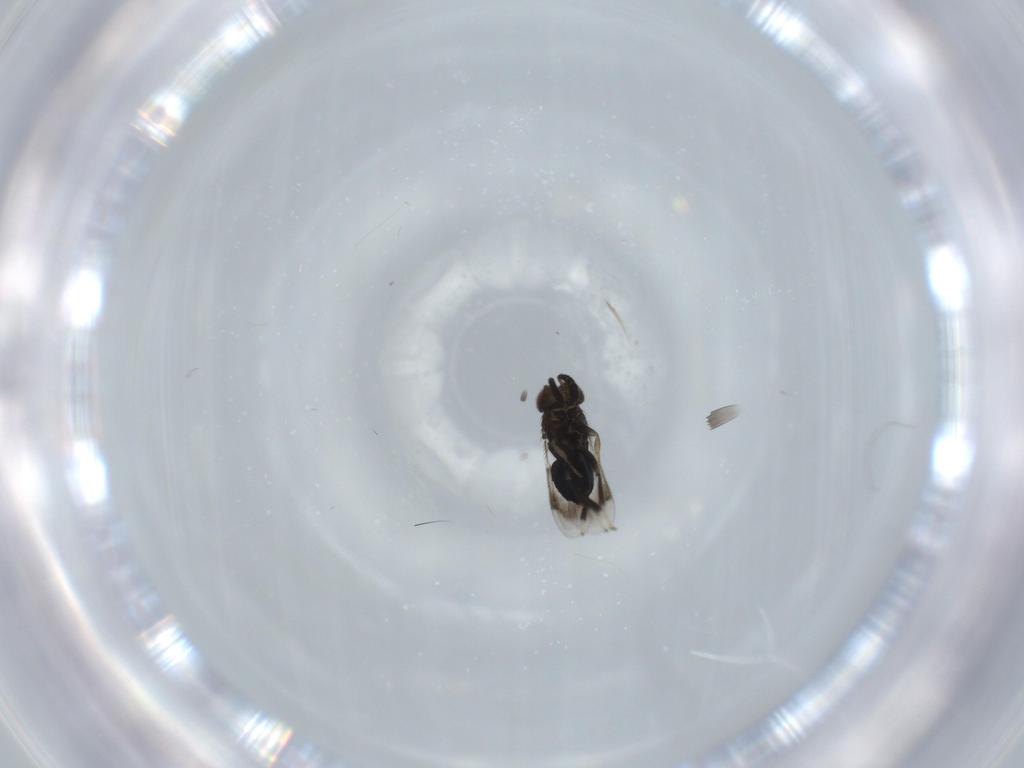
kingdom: Animalia
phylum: Arthropoda
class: Insecta
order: Hymenoptera
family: Aphelinidae
